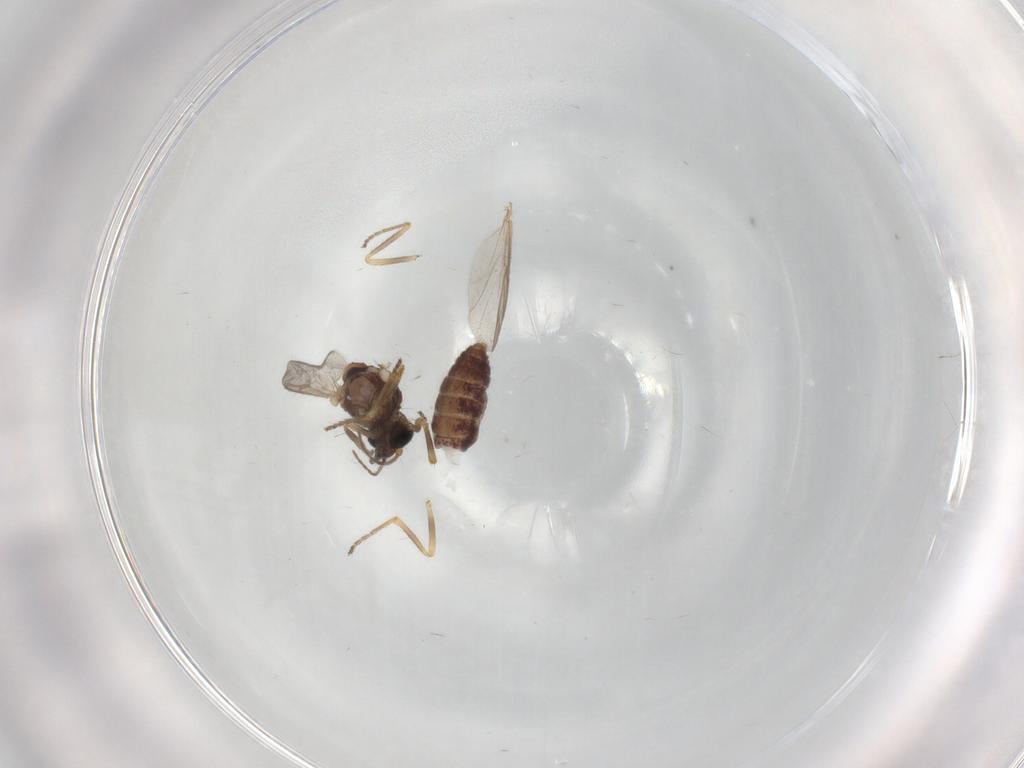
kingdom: Animalia
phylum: Arthropoda
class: Insecta
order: Diptera
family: Ceratopogonidae
